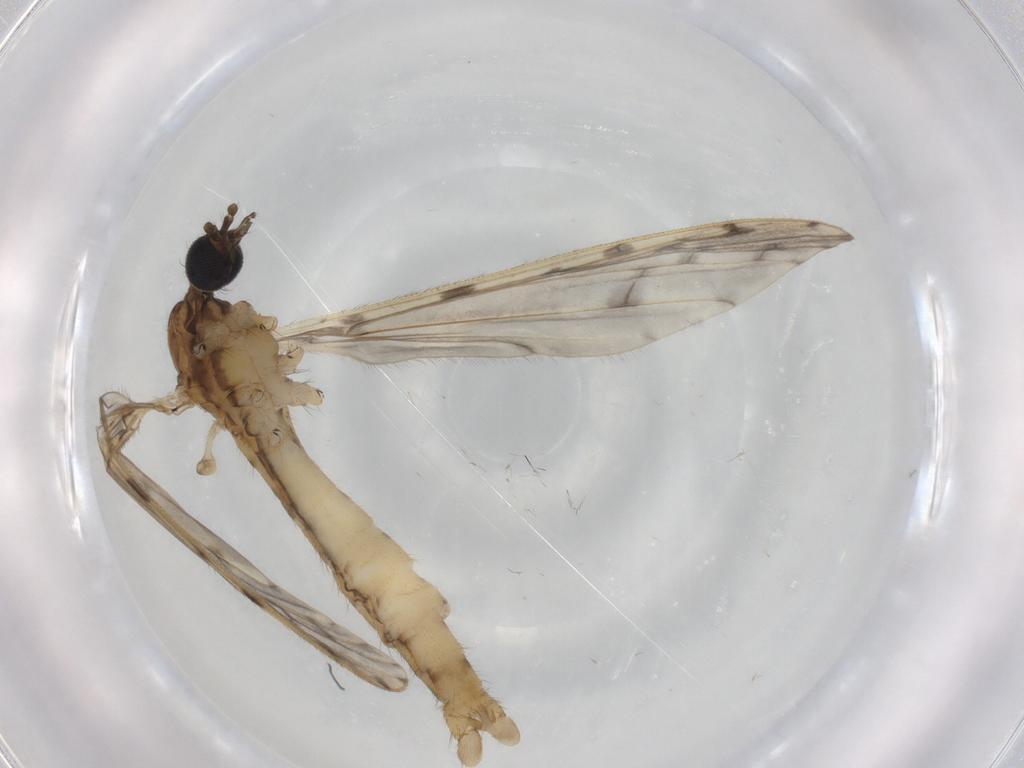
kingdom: Animalia
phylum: Arthropoda
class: Insecta
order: Diptera
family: Limoniidae
